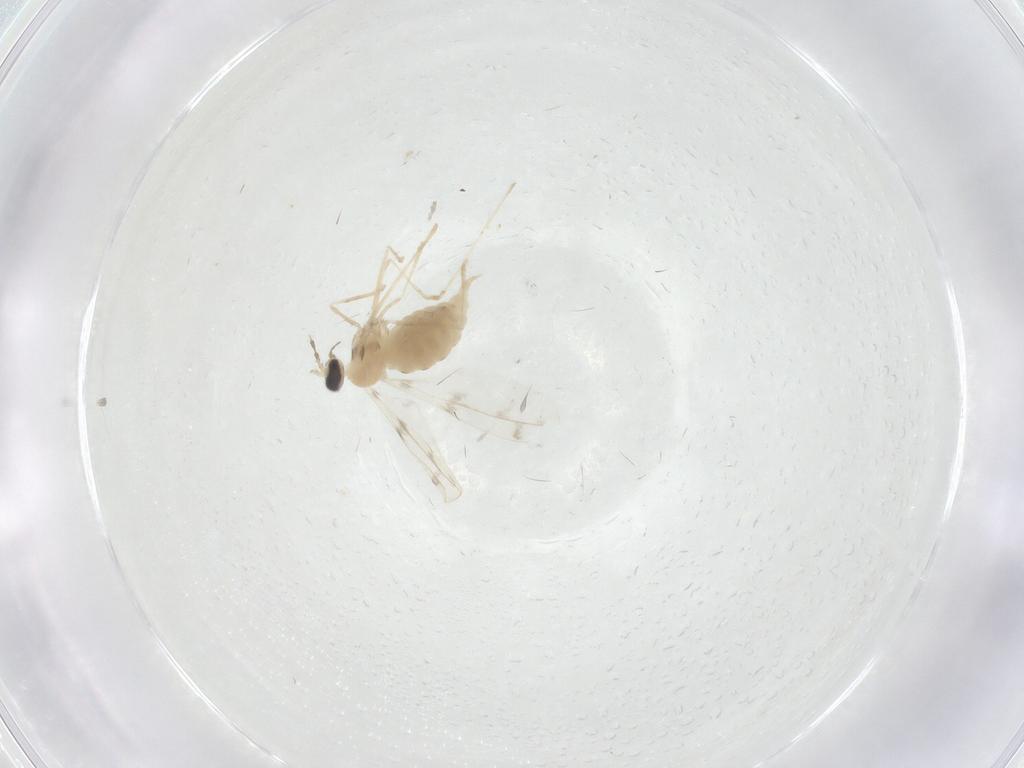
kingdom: Animalia
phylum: Arthropoda
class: Insecta
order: Diptera
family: Cecidomyiidae
